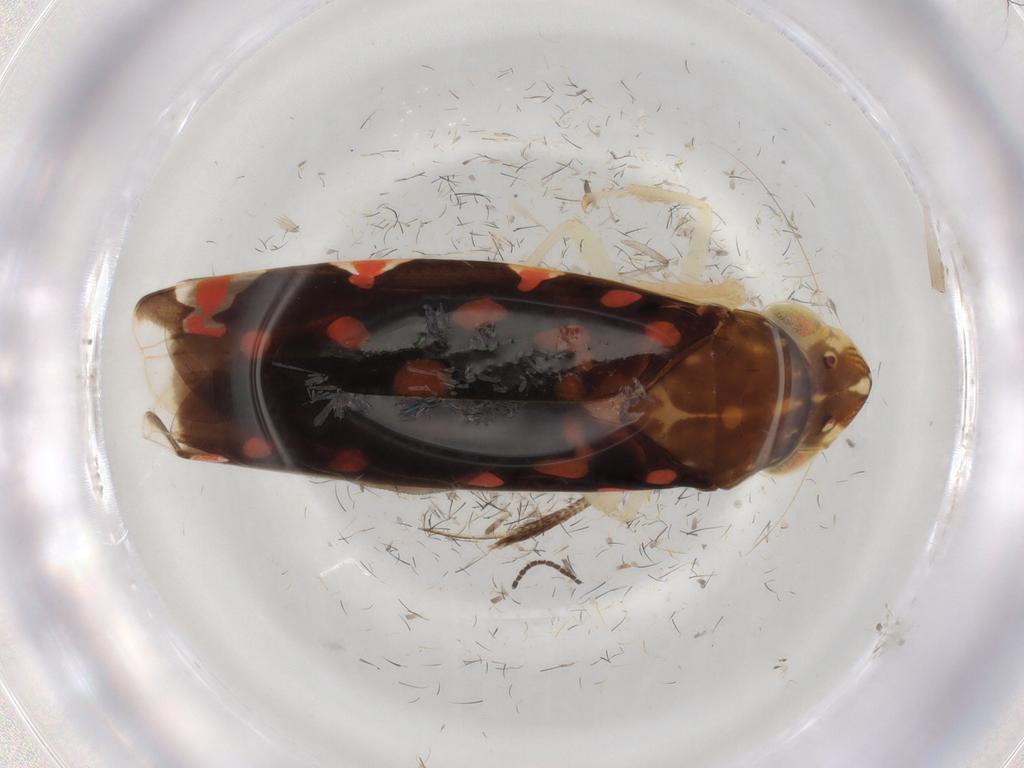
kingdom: Animalia
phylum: Arthropoda
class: Insecta
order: Hemiptera
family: Cicadellidae
